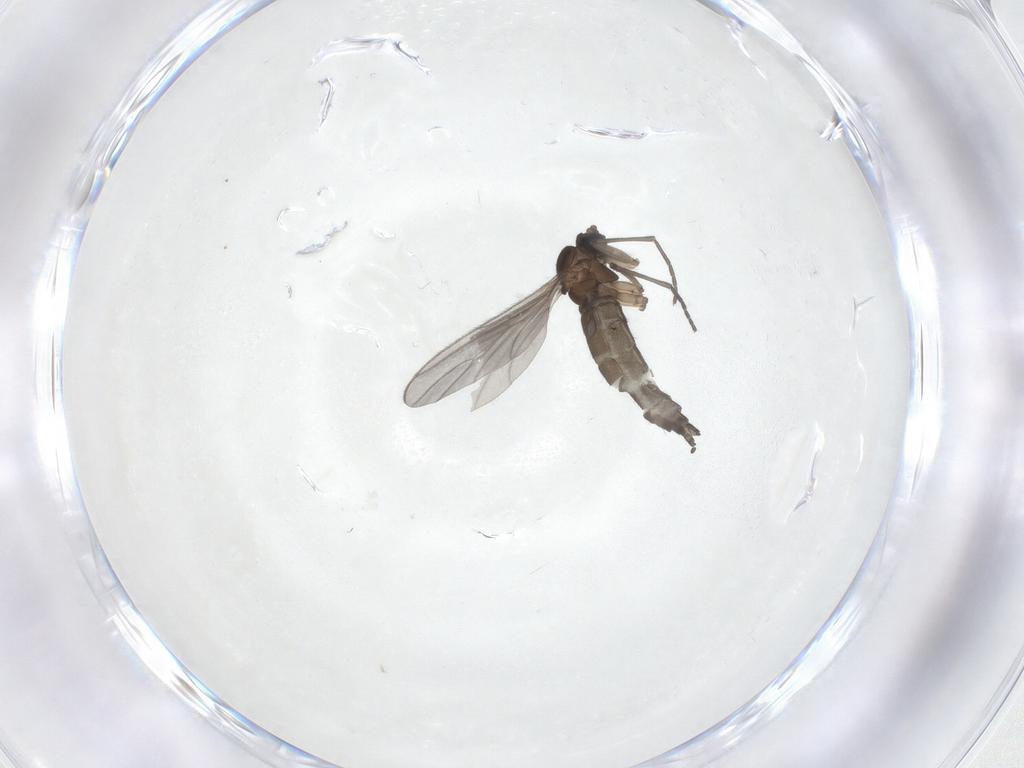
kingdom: Animalia
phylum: Arthropoda
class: Insecta
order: Diptera
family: Sciaridae
